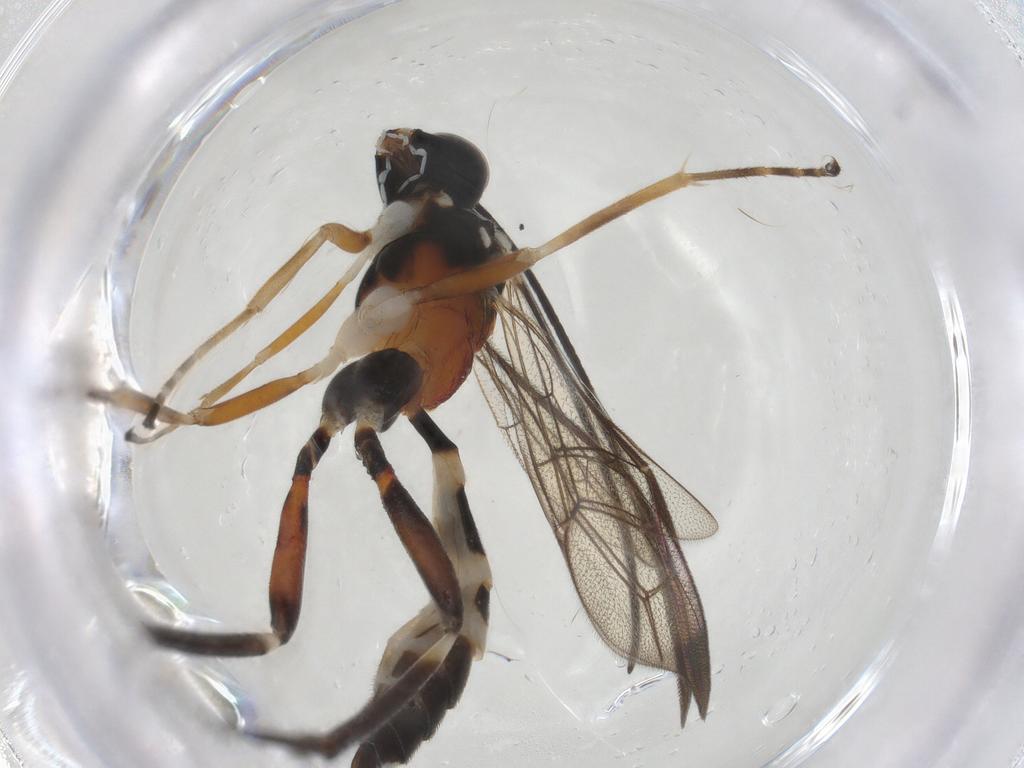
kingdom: Animalia
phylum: Arthropoda
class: Insecta
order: Hymenoptera
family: Ichneumonidae
